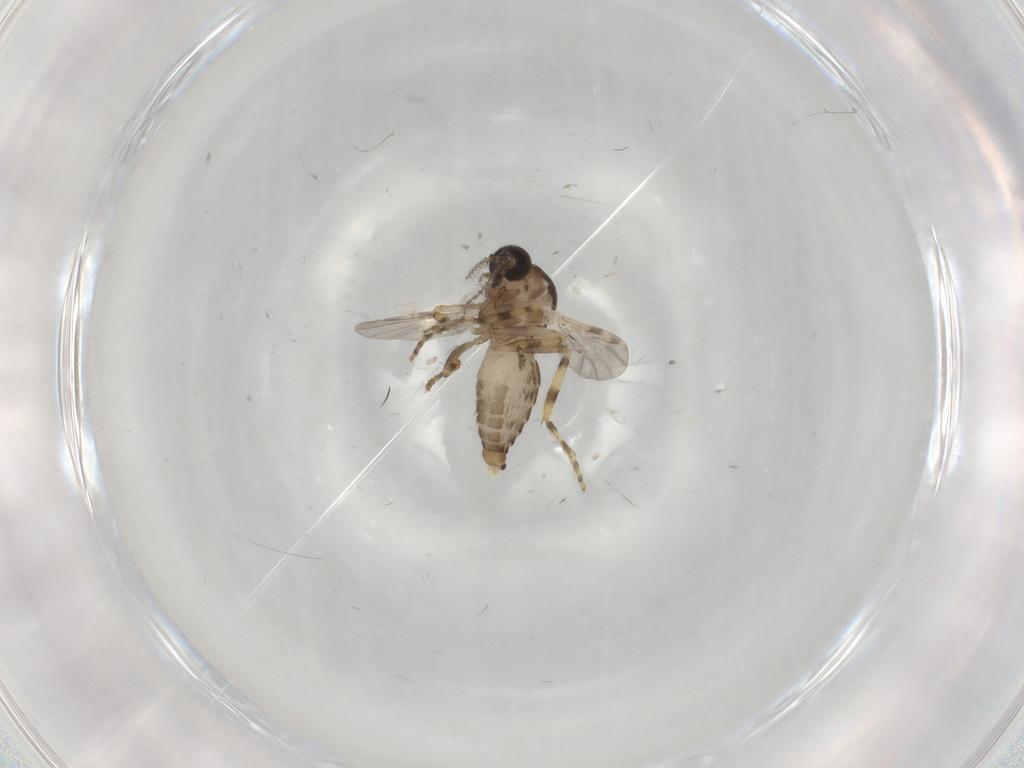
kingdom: Animalia
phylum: Arthropoda
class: Insecta
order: Diptera
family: Ceratopogonidae
